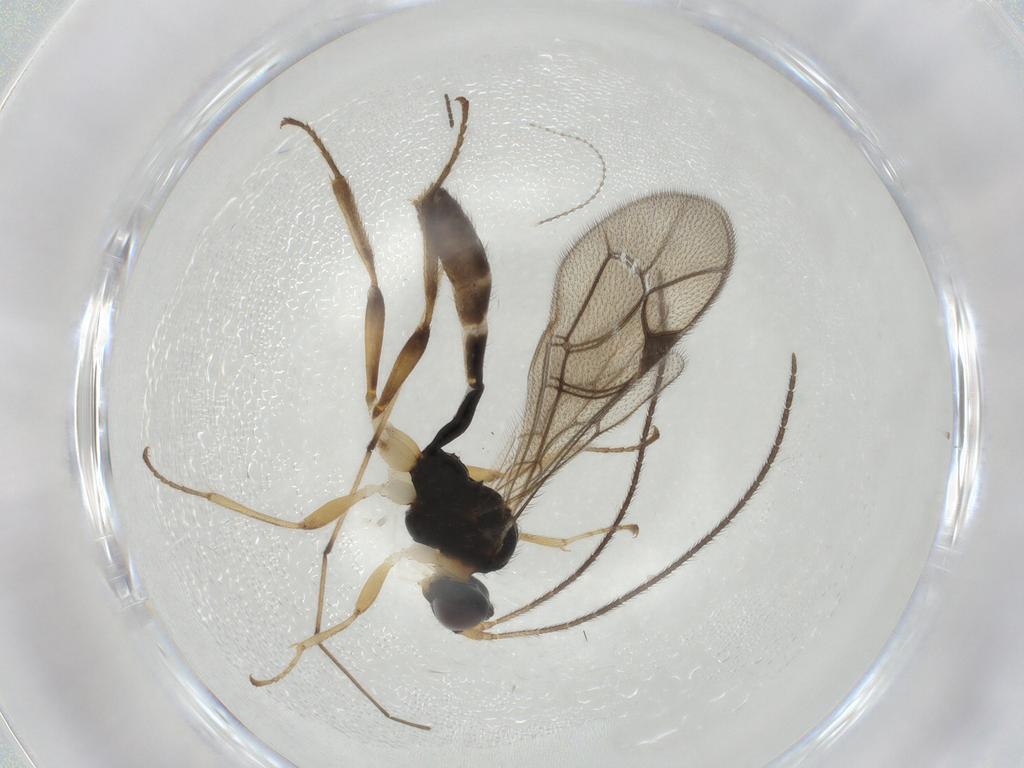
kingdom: Animalia
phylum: Arthropoda
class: Insecta
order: Hymenoptera
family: Ichneumonidae
